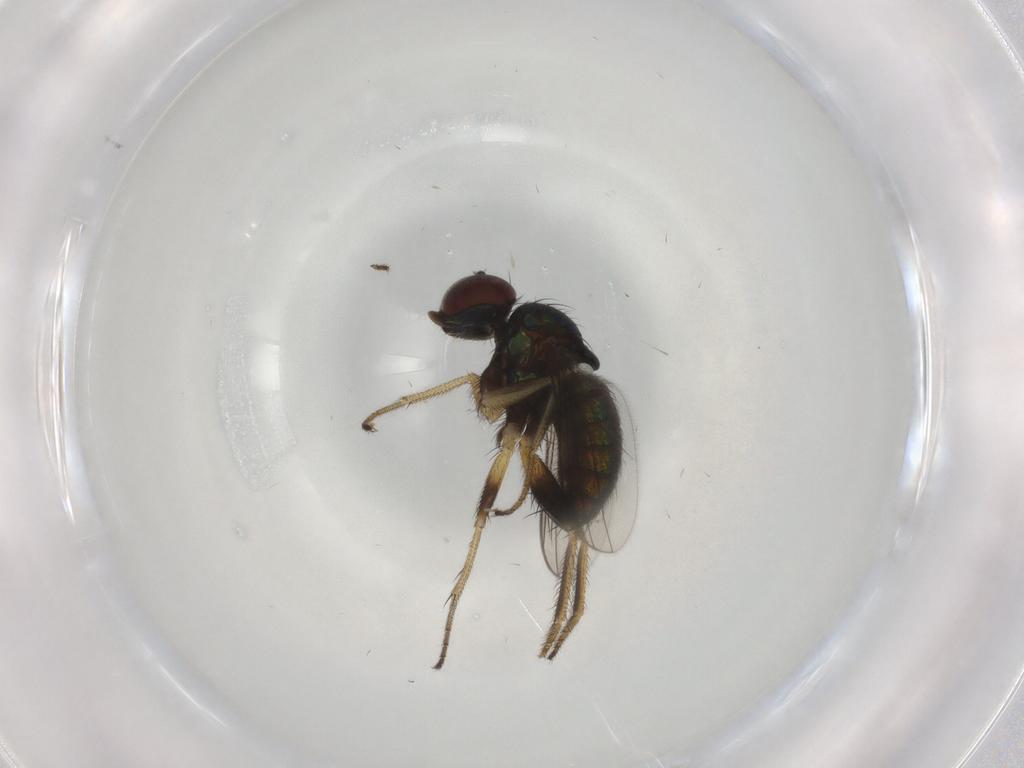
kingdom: Animalia
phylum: Arthropoda
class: Insecta
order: Diptera
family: Dolichopodidae
